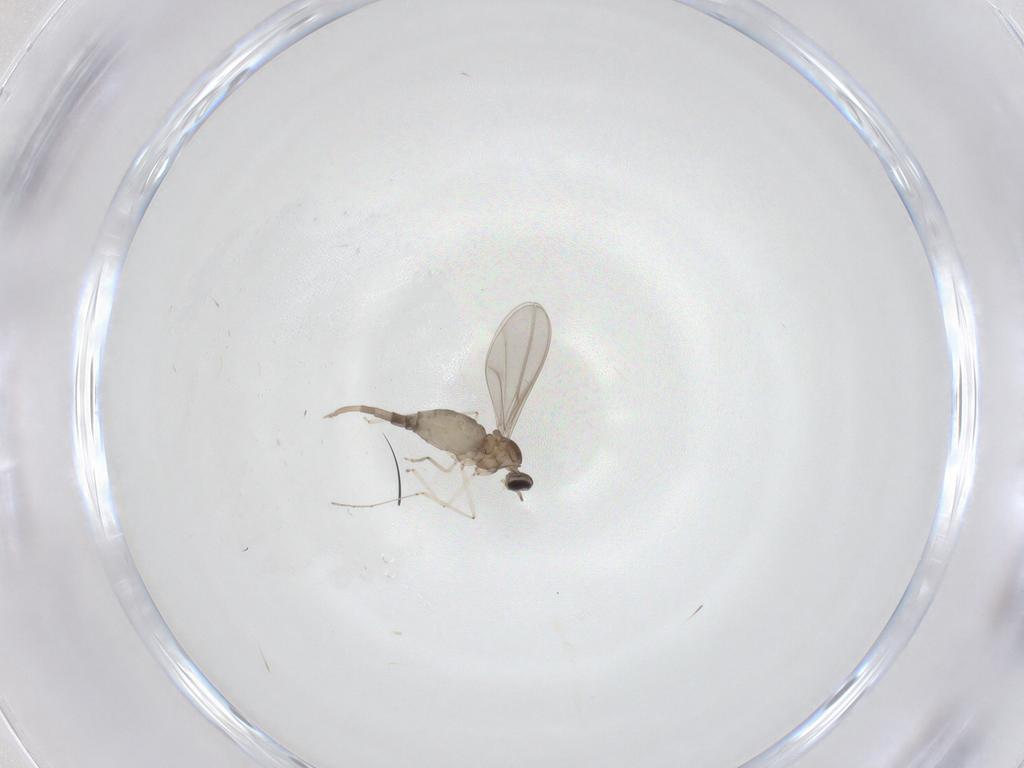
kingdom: Animalia
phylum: Arthropoda
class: Insecta
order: Diptera
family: Cecidomyiidae
